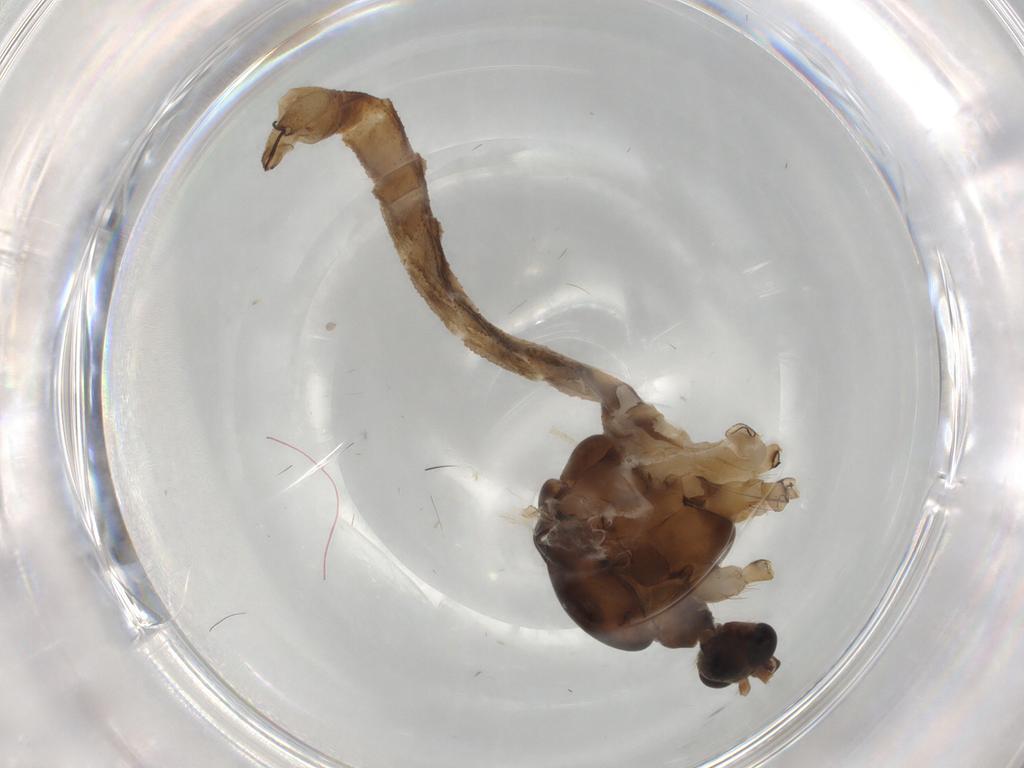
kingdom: Animalia
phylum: Arthropoda
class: Insecta
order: Diptera
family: Limoniidae
